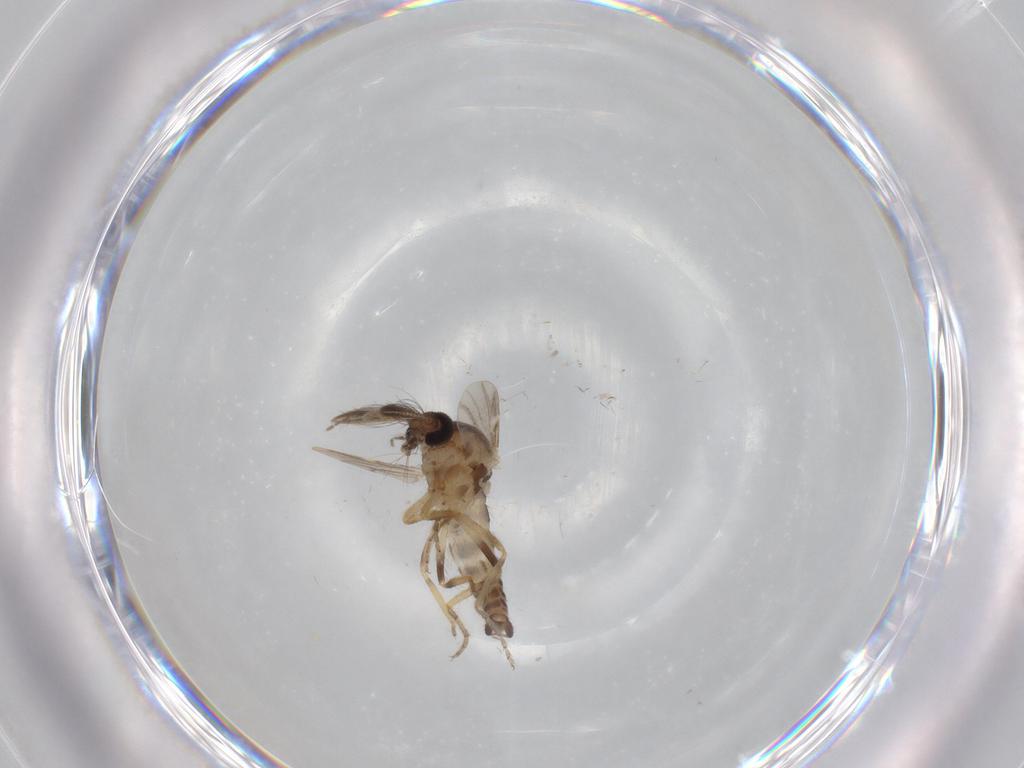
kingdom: Animalia
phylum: Arthropoda
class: Insecta
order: Diptera
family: Ceratopogonidae
